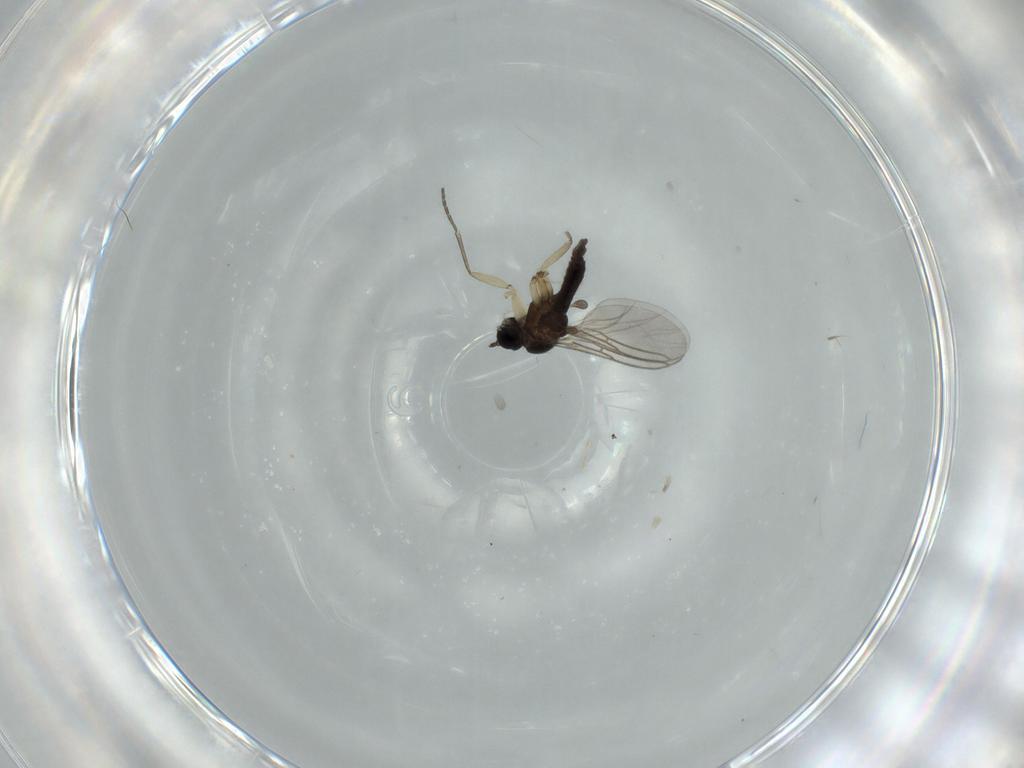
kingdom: Animalia
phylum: Arthropoda
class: Insecta
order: Diptera
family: Sciaridae
